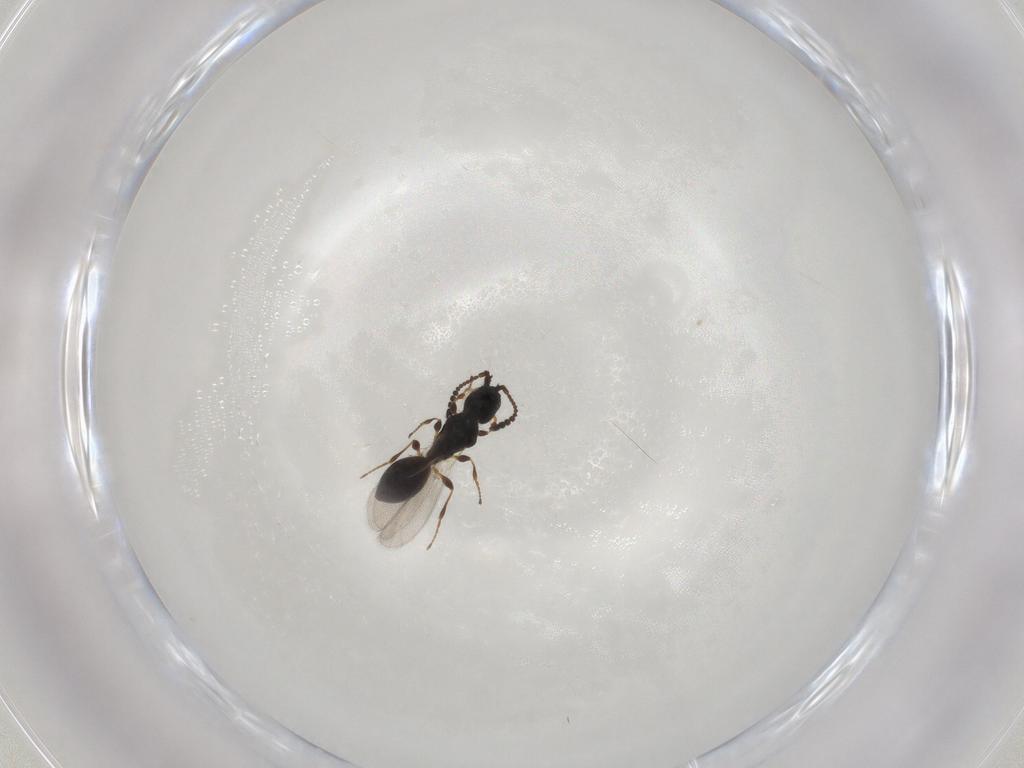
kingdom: Animalia
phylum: Arthropoda
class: Insecta
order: Hymenoptera
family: Diapriidae
